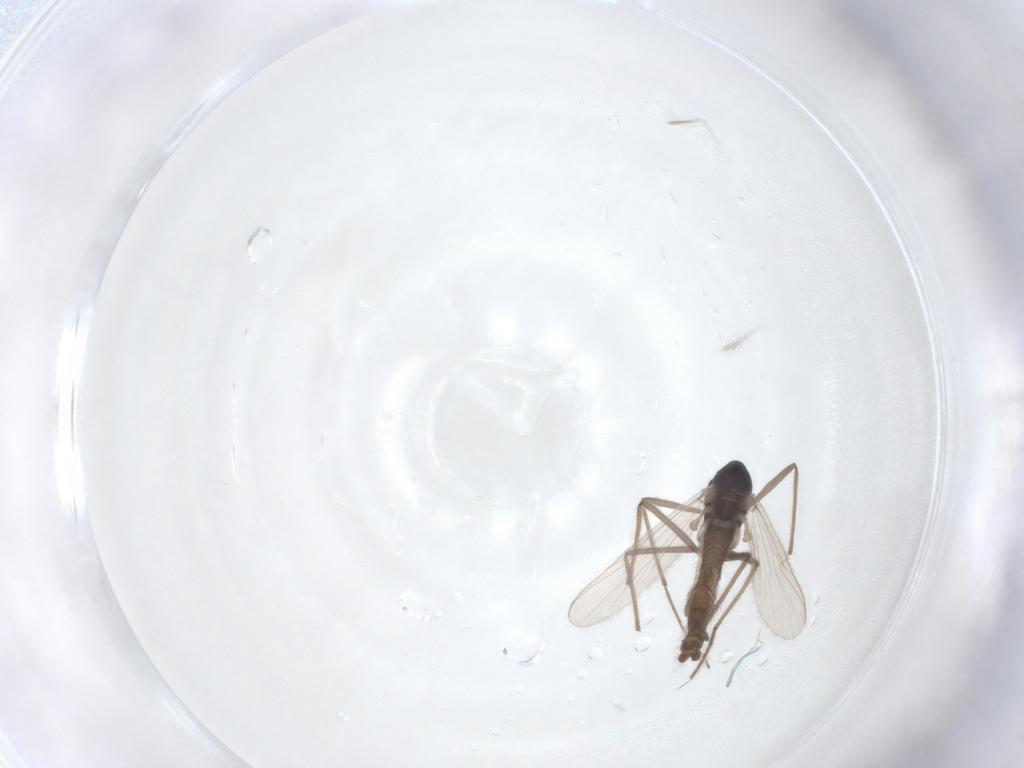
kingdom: Animalia
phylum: Arthropoda
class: Insecta
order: Diptera
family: Chironomidae
